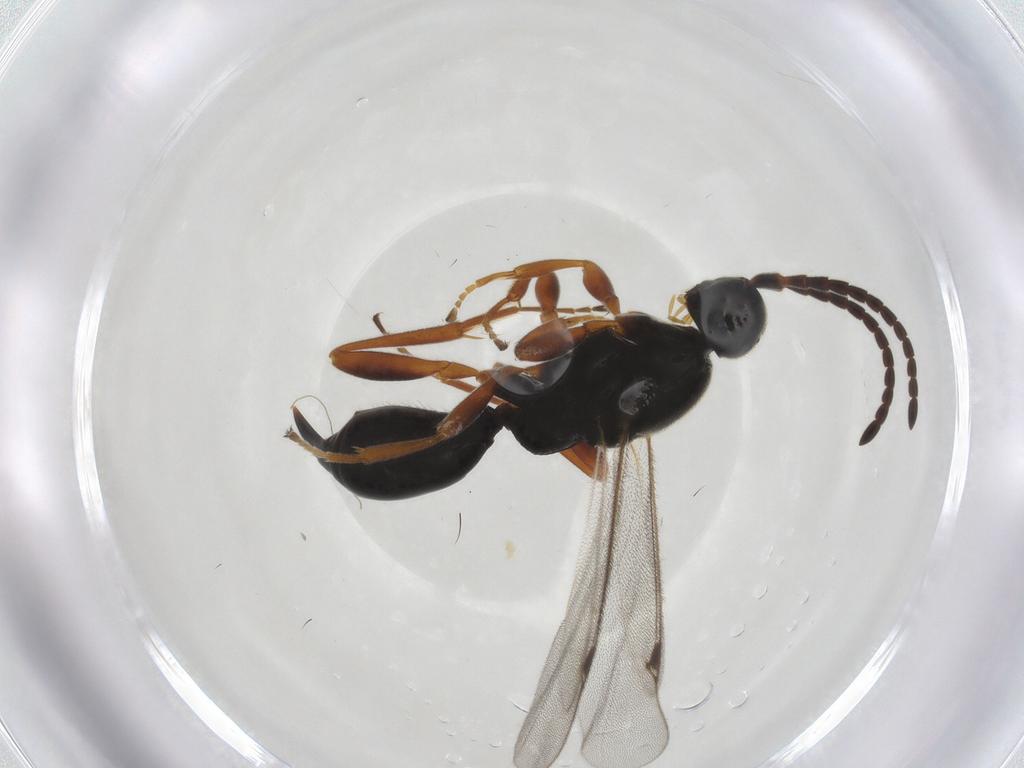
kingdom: Animalia
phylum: Arthropoda
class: Insecta
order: Hymenoptera
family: Proctotrupidae
